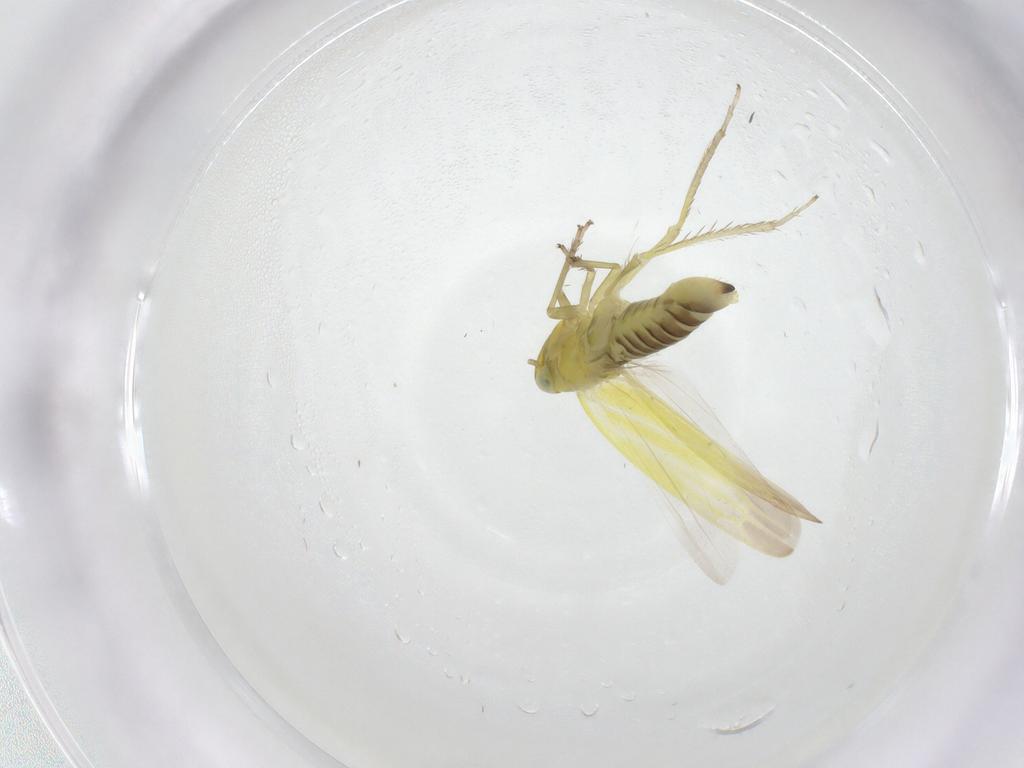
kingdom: Animalia
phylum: Arthropoda
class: Insecta
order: Hemiptera
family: Cicadellidae
